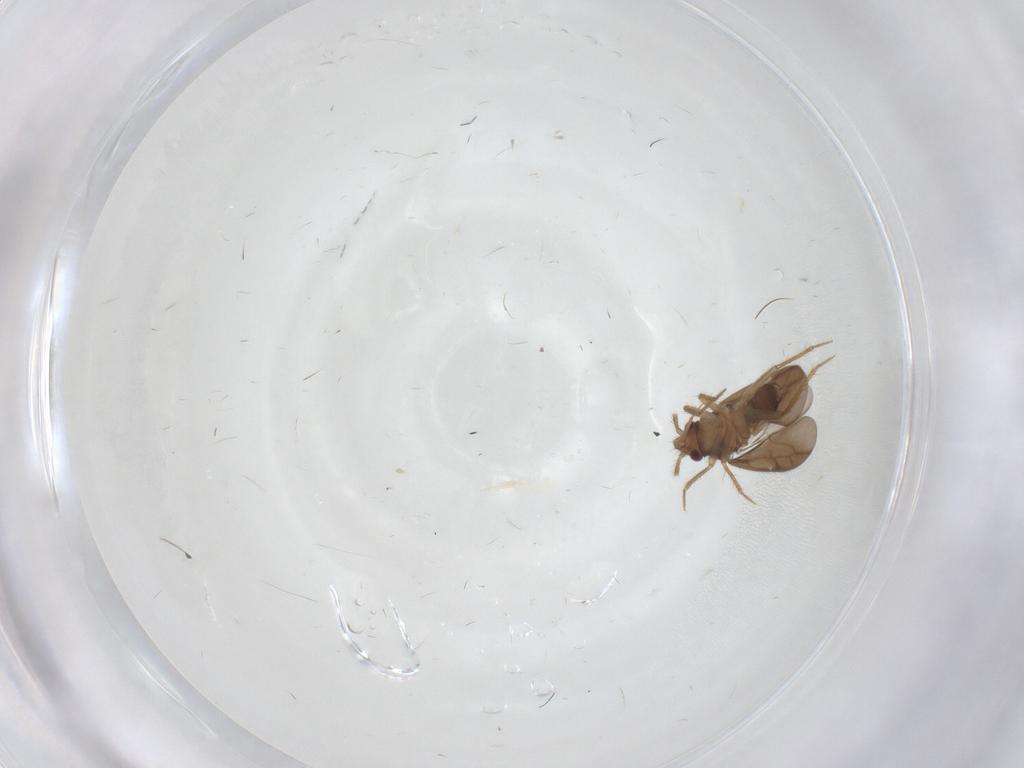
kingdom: Animalia
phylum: Arthropoda
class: Insecta
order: Hemiptera
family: Ceratocombidae
